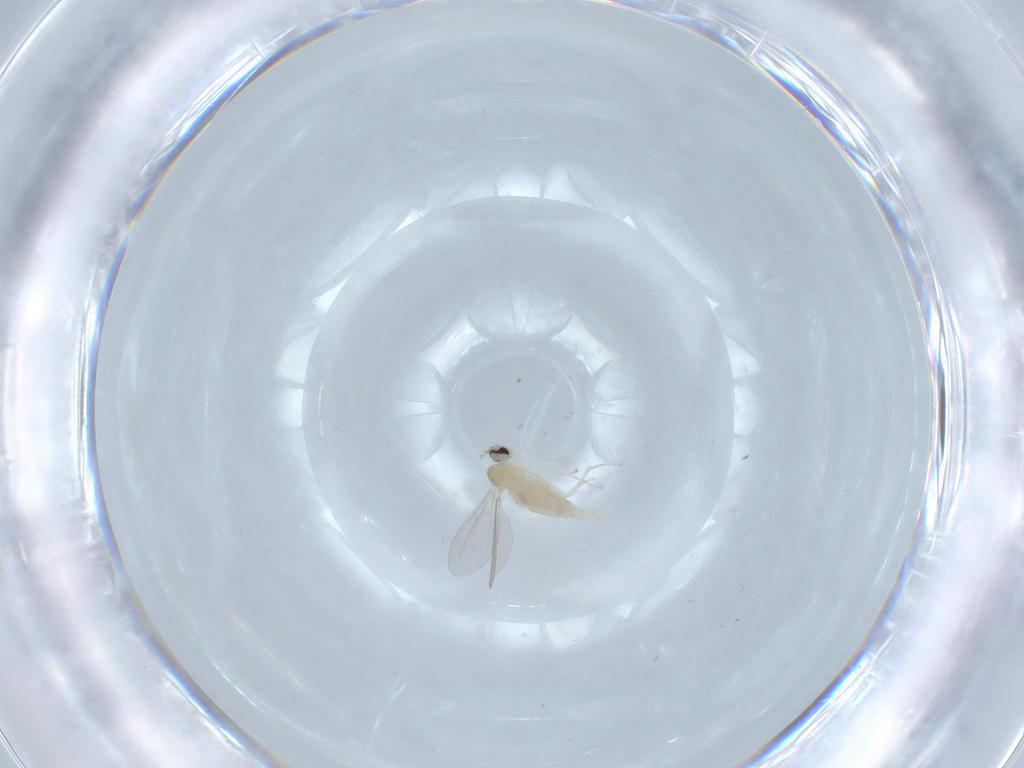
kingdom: Animalia
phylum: Arthropoda
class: Insecta
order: Diptera
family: Cecidomyiidae
